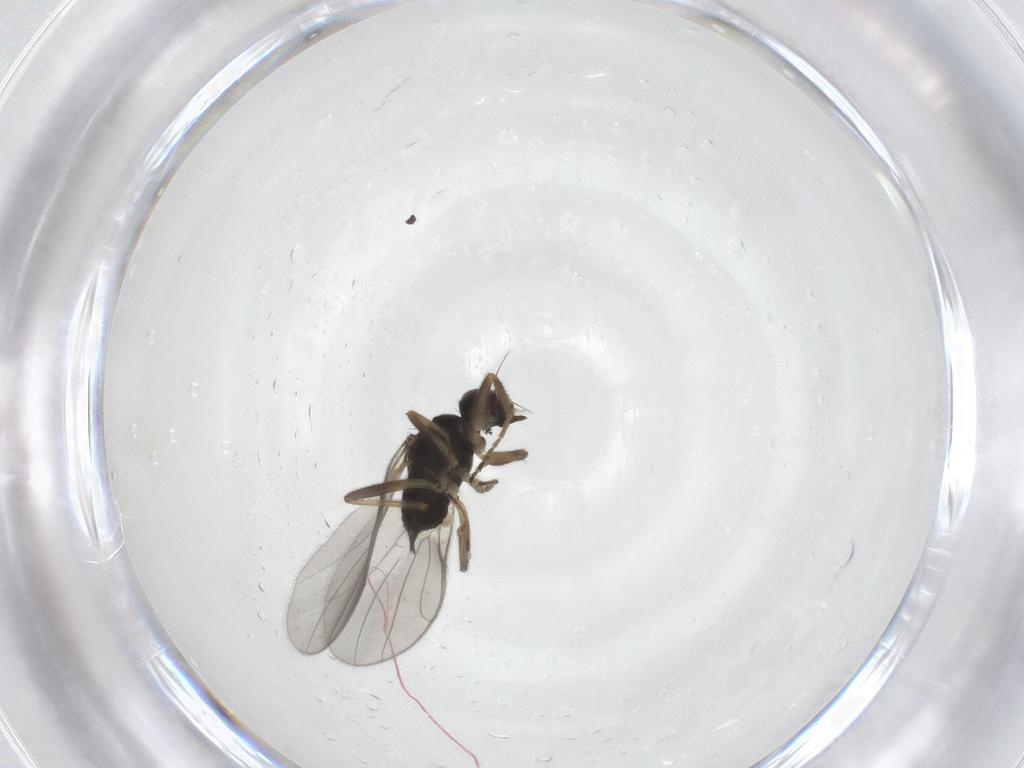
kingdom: Animalia
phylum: Arthropoda
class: Insecta
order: Diptera
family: Hybotidae
